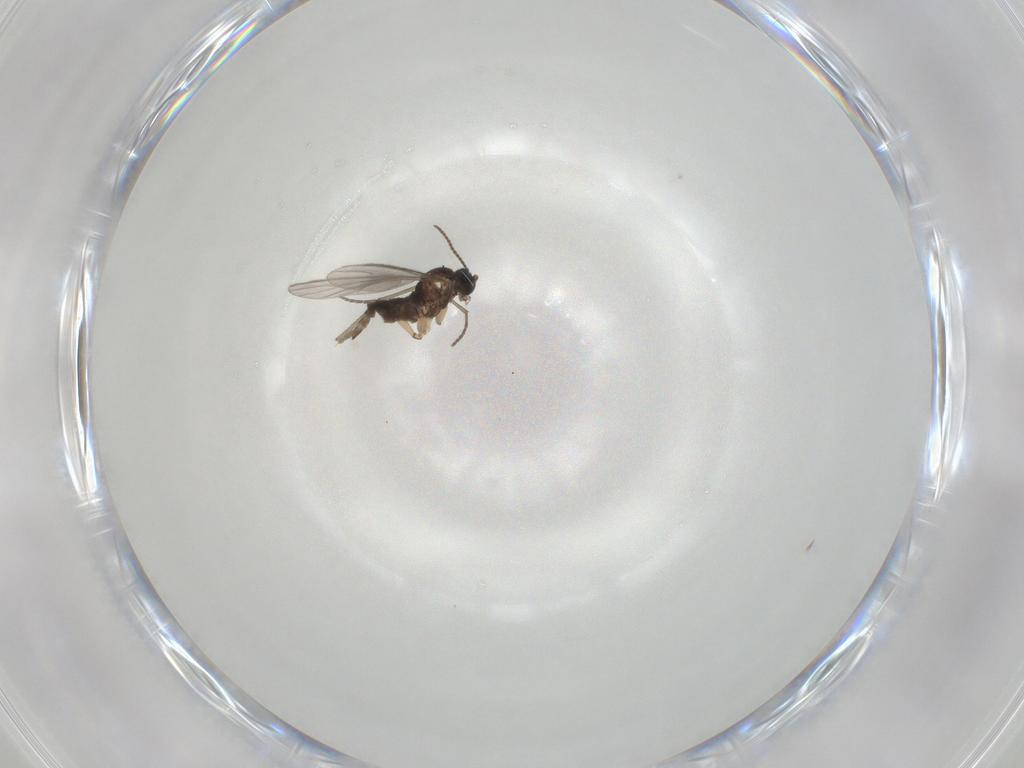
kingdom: Animalia
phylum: Arthropoda
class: Insecta
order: Diptera
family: Sciaridae
